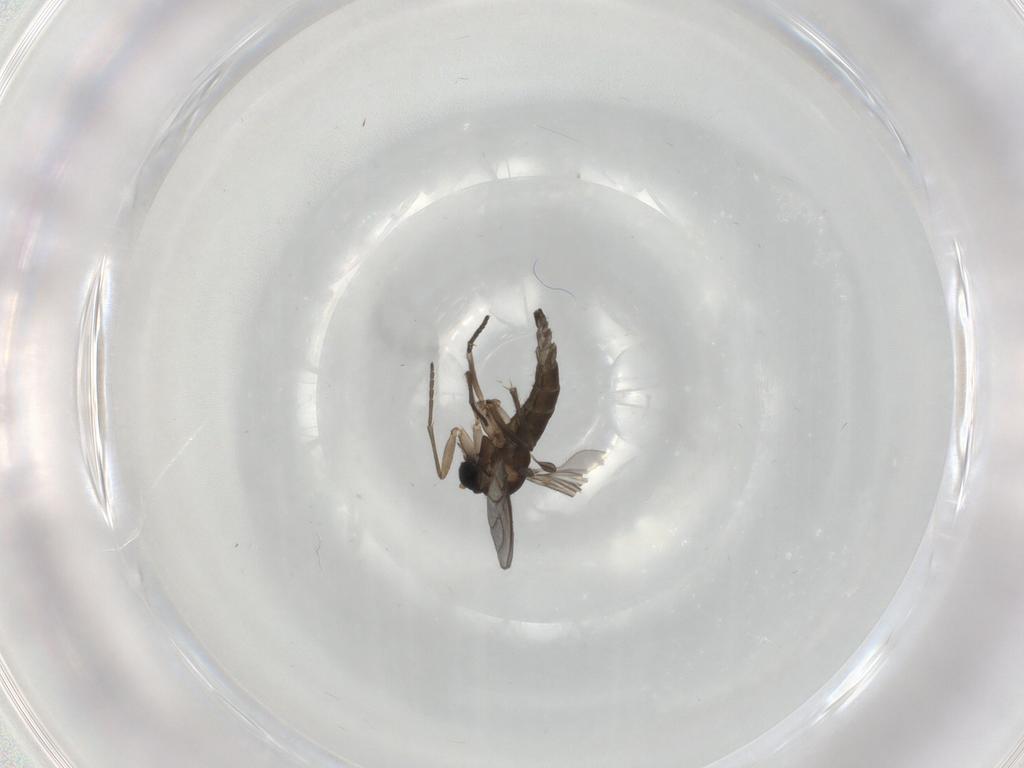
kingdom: Animalia
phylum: Arthropoda
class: Insecta
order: Diptera
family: Sciaridae
